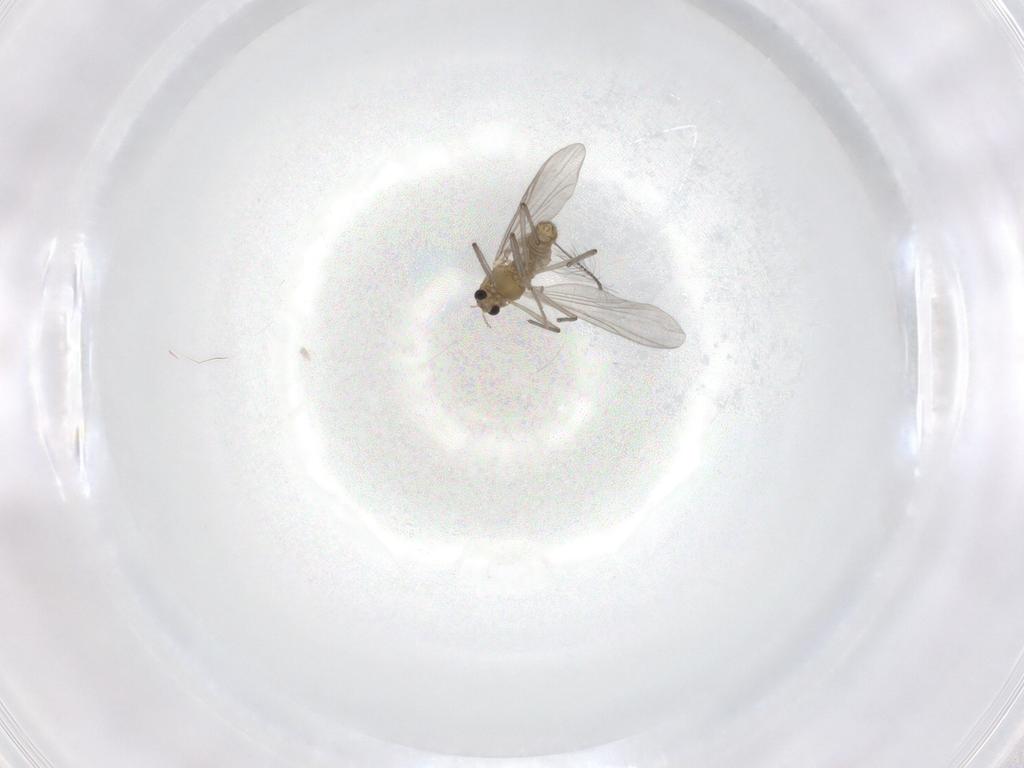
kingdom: Animalia
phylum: Arthropoda
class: Insecta
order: Diptera
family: Chironomidae
